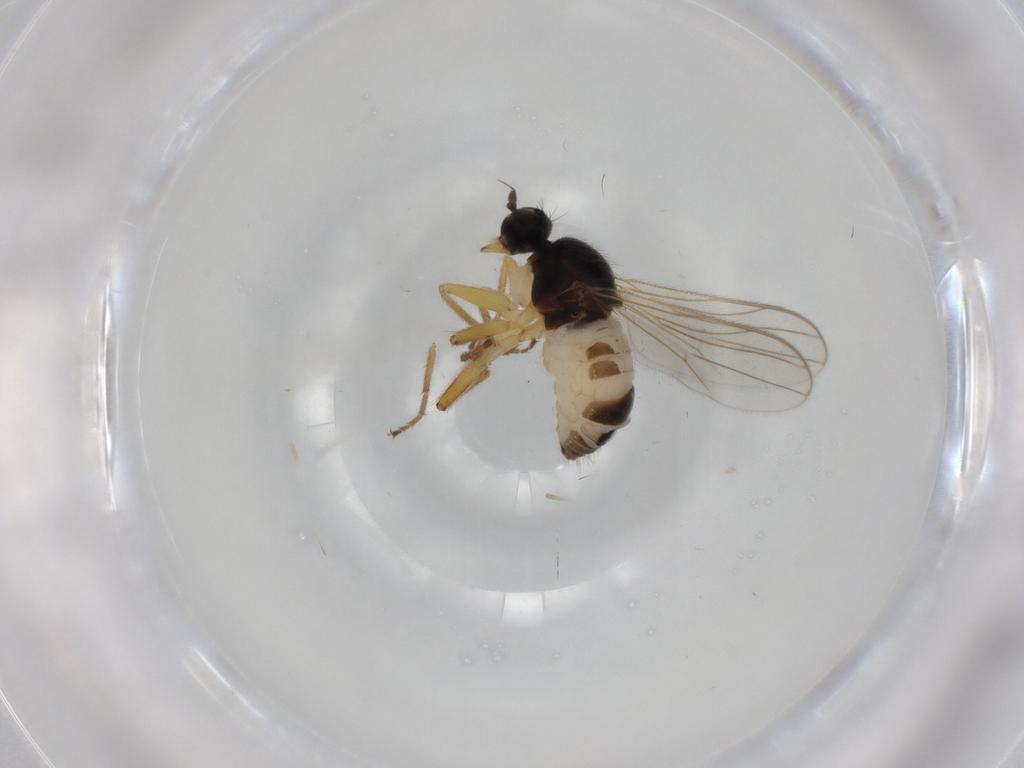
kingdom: Animalia
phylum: Arthropoda
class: Insecta
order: Diptera
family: Hybotidae
